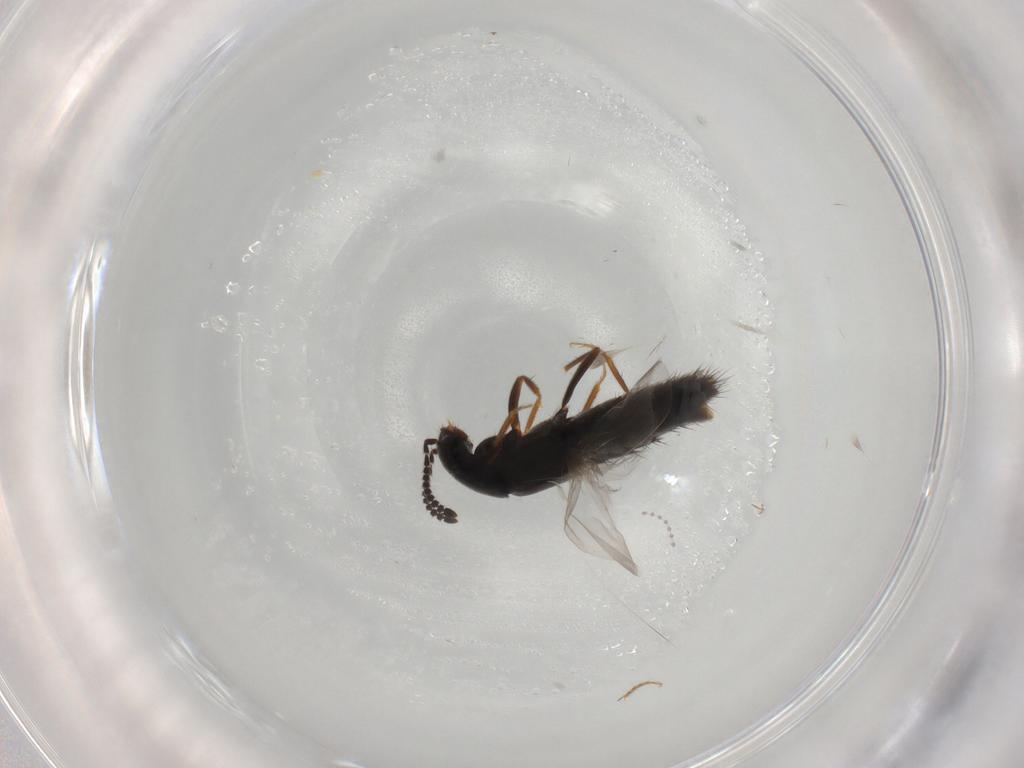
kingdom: Animalia
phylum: Arthropoda
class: Insecta
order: Coleoptera
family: Staphylinidae
